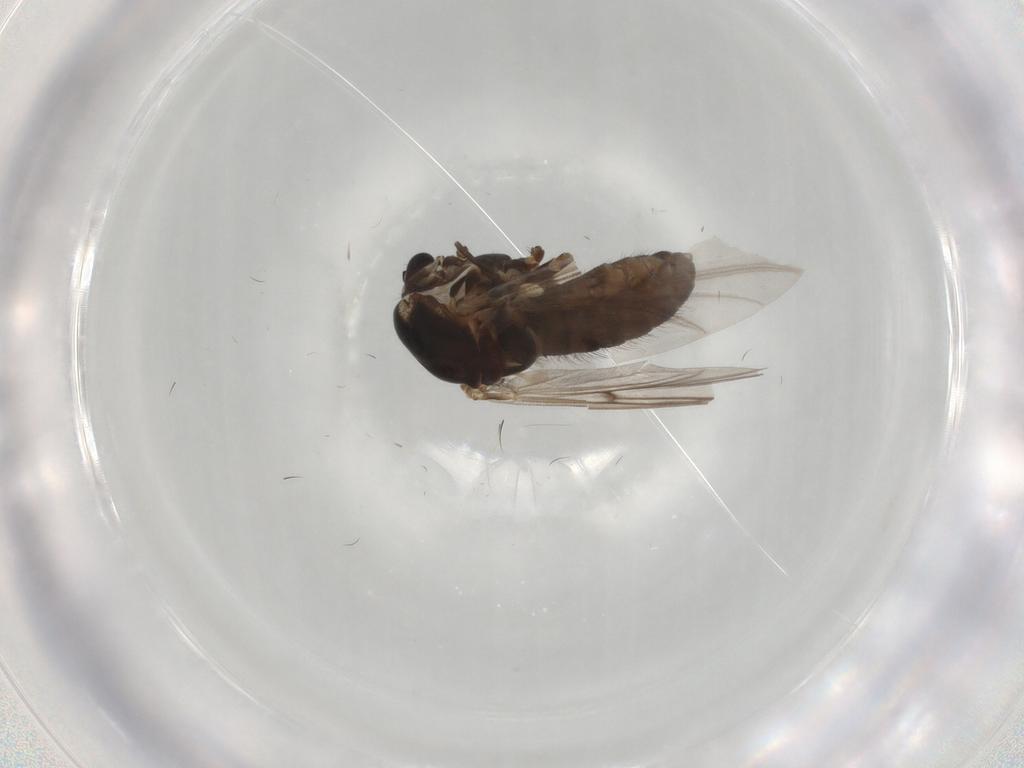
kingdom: Animalia
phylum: Arthropoda
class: Insecta
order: Diptera
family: Chironomidae
